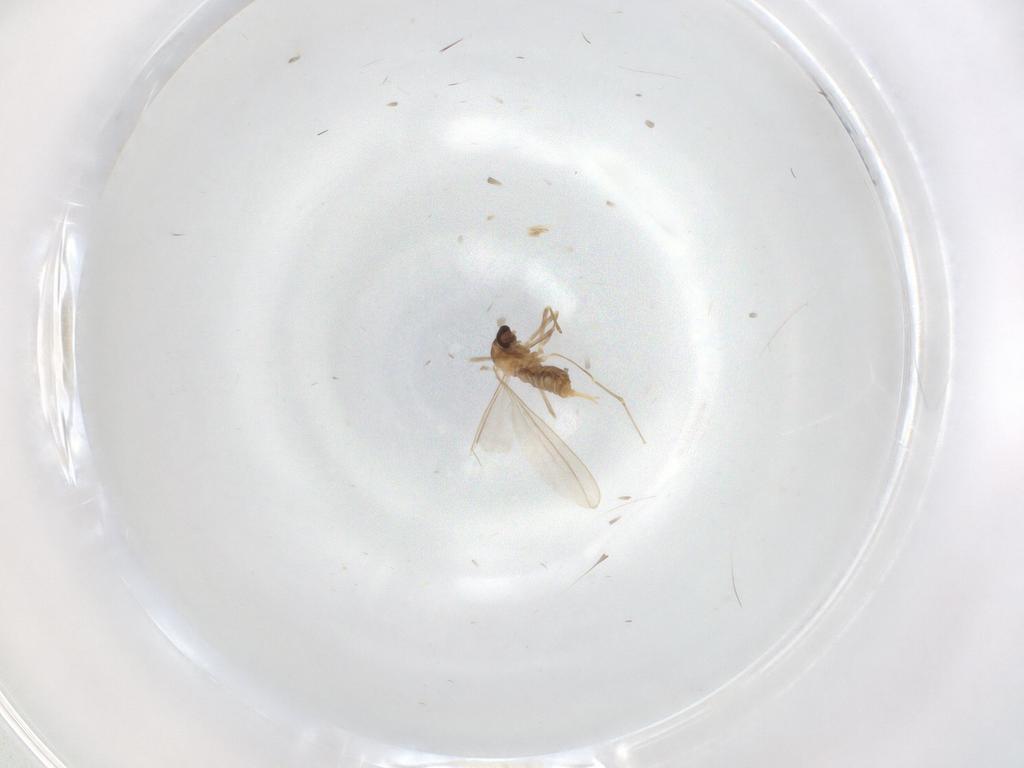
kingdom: Animalia
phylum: Arthropoda
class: Insecta
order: Diptera
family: Cecidomyiidae
